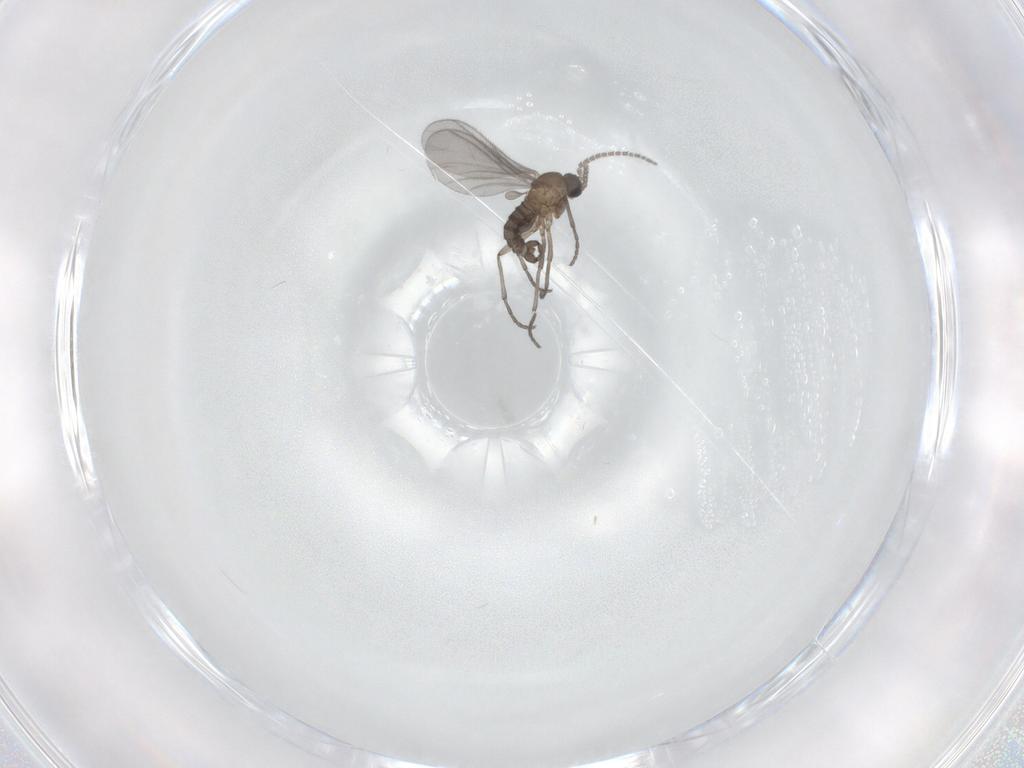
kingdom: Animalia
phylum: Arthropoda
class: Insecta
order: Diptera
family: Sciaridae
